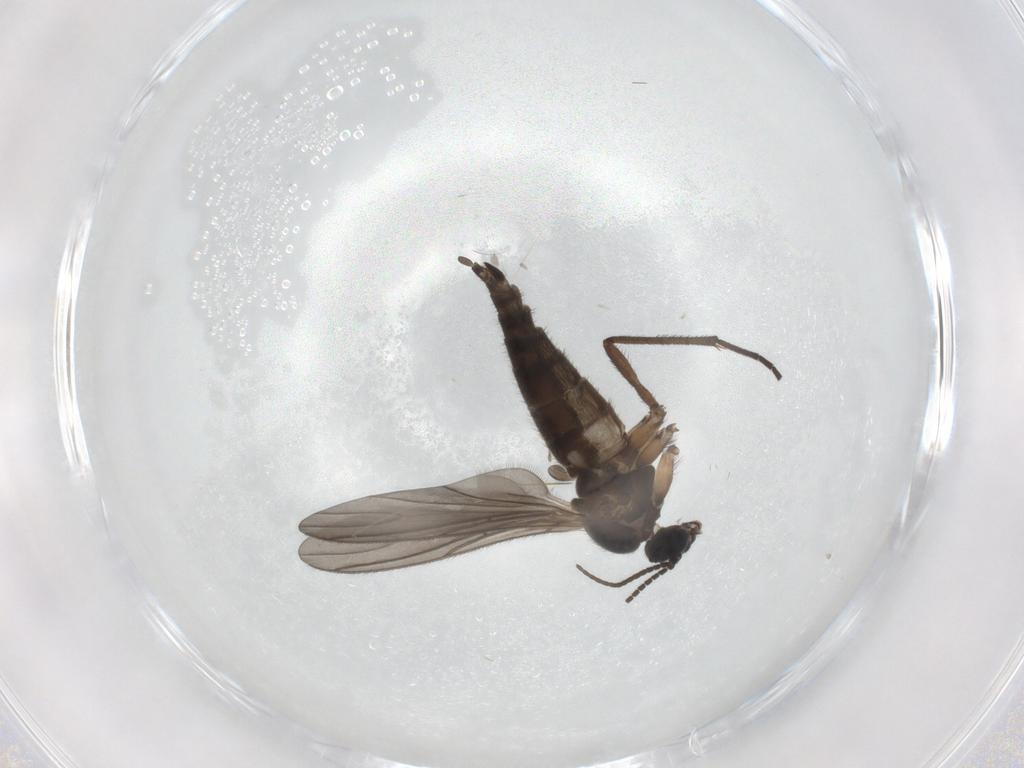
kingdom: Animalia
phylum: Arthropoda
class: Insecta
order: Diptera
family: Sciaridae
